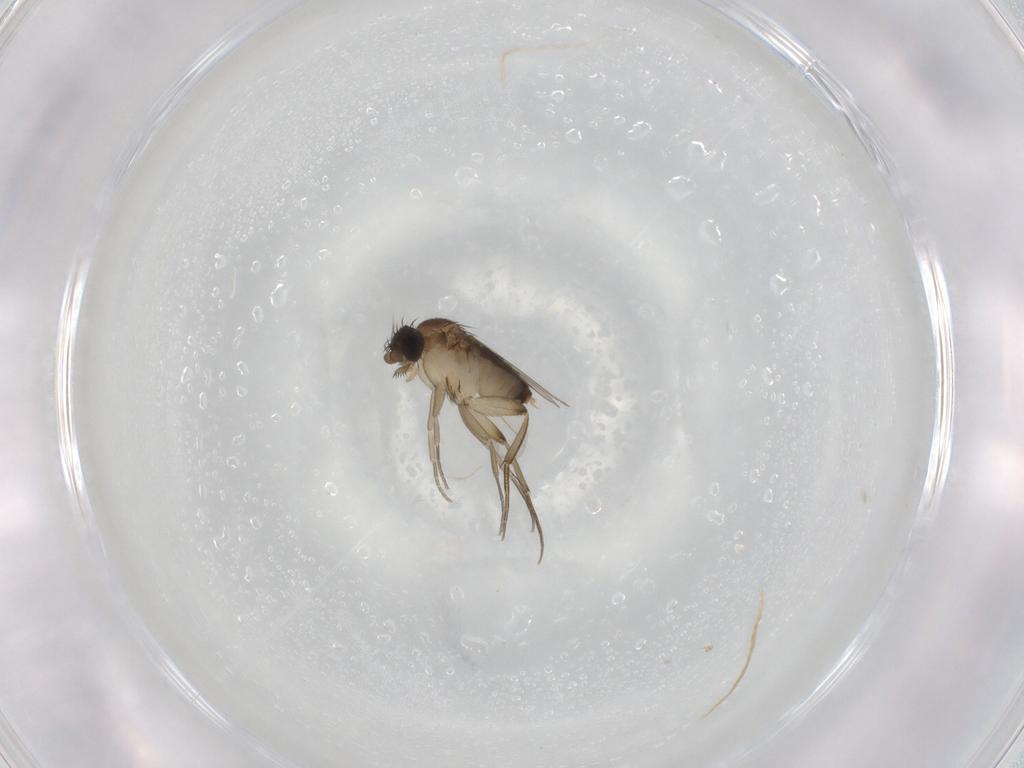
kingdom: Animalia
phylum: Arthropoda
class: Insecta
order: Diptera
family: Phoridae
